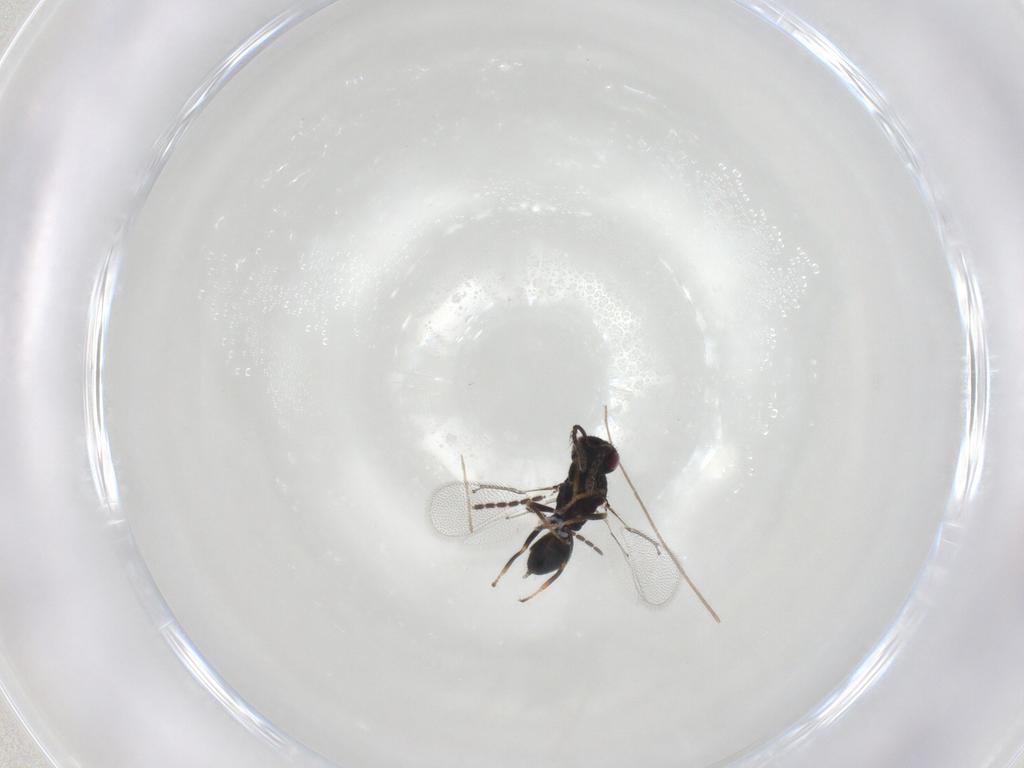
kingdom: Animalia
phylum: Arthropoda
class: Insecta
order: Hymenoptera
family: Eulophidae
